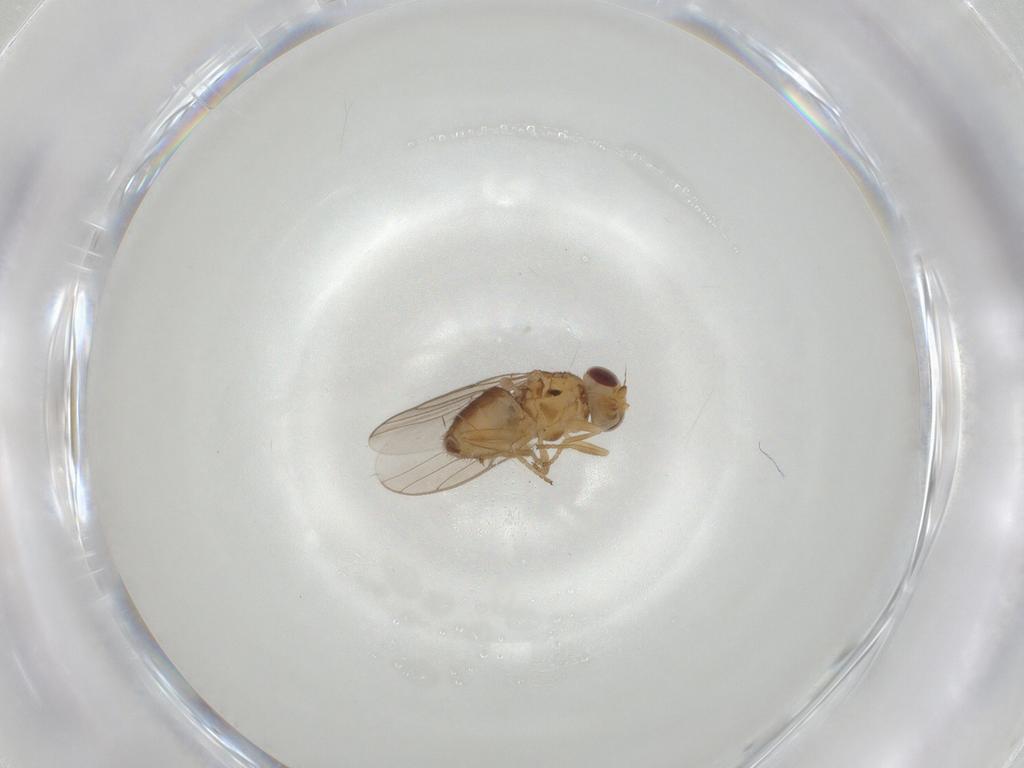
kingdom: Animalia
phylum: Arthropoda
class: Insecta
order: Diptera
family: Chloropidae
